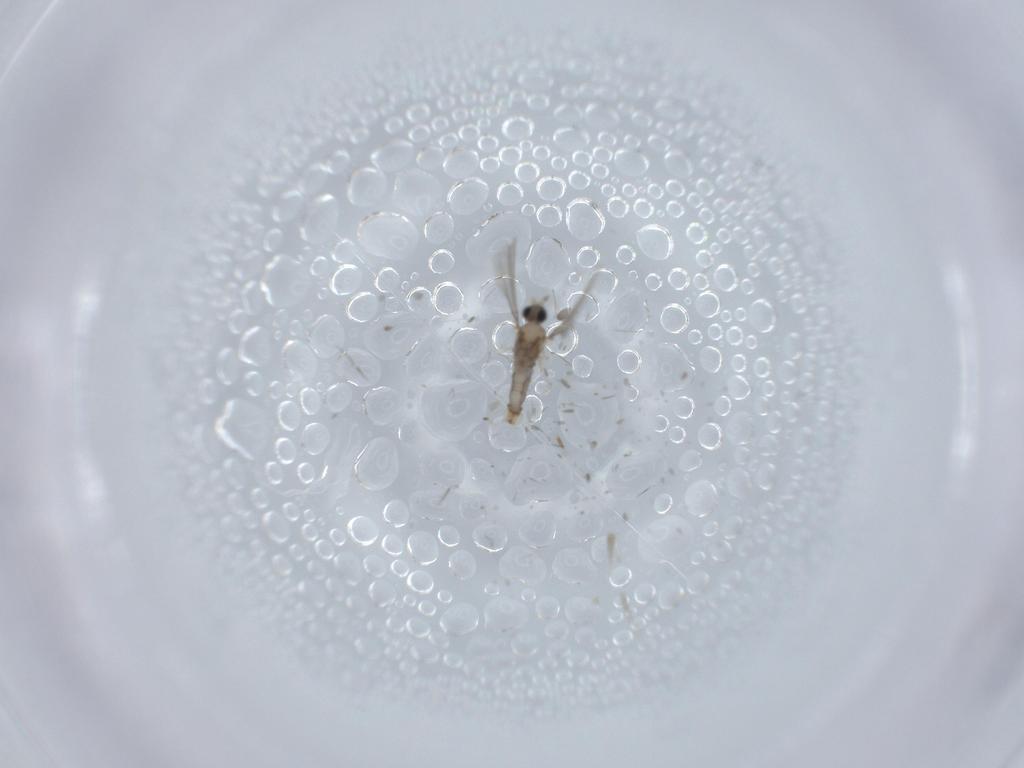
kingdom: Animalia
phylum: Arthropoda
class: Insecta
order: Diptera
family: Cecidomyiidae
